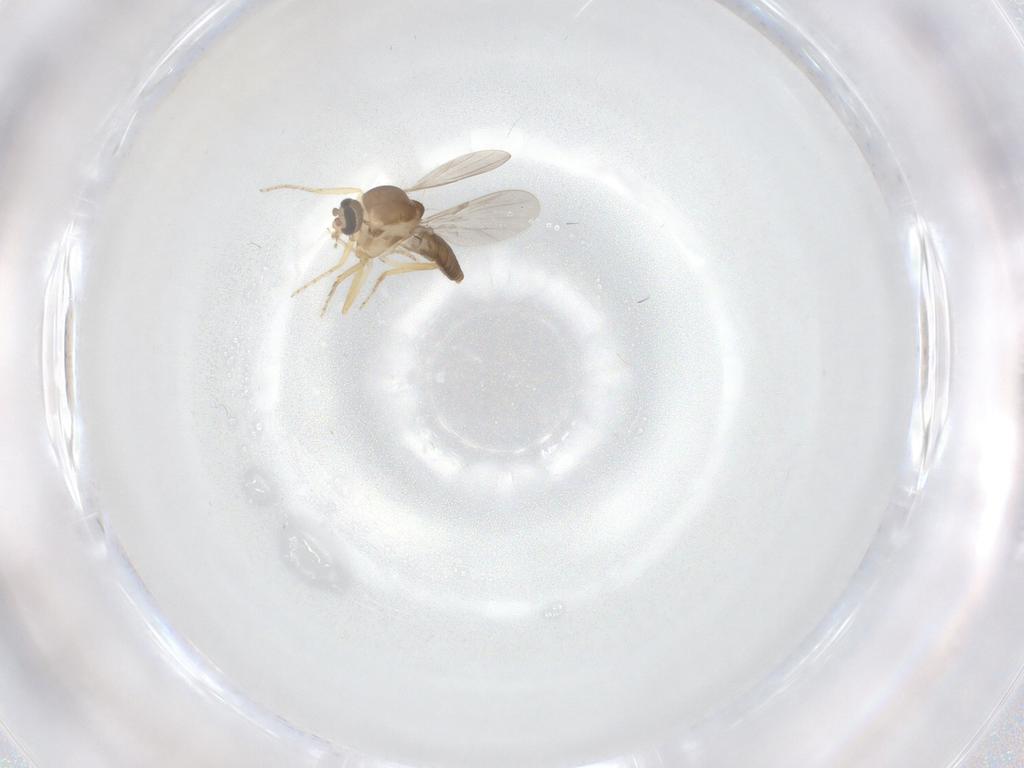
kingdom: Animalia
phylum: Arthropoda
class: Insecta
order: Diptera
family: Ceratopogonidae
